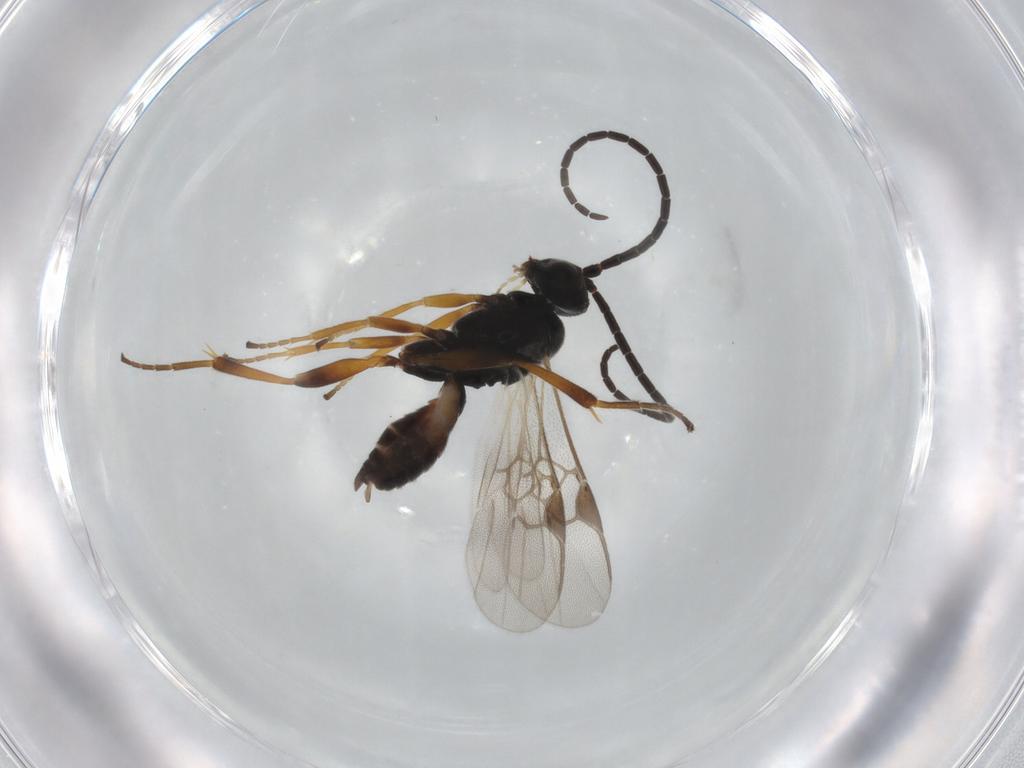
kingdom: Animalia
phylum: Arthropoda
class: Insecta
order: Hymenoptera
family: Braconidae
